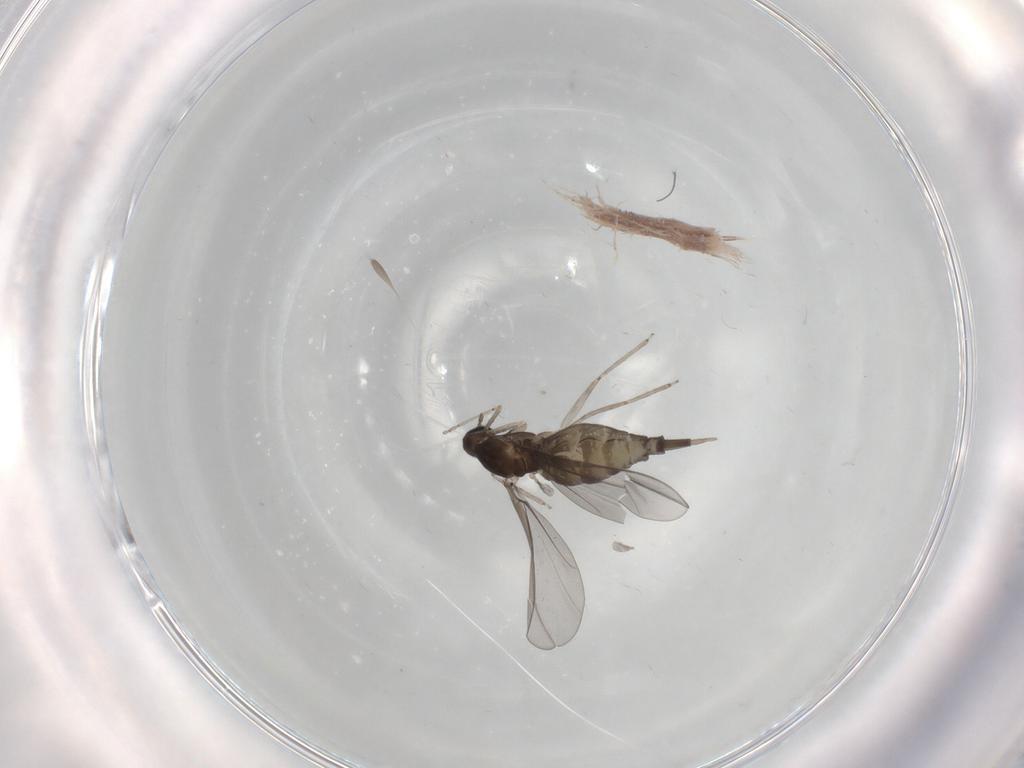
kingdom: Animalia
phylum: Arthropoda
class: Insecta
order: Diptera
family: Cecidomyiidae
